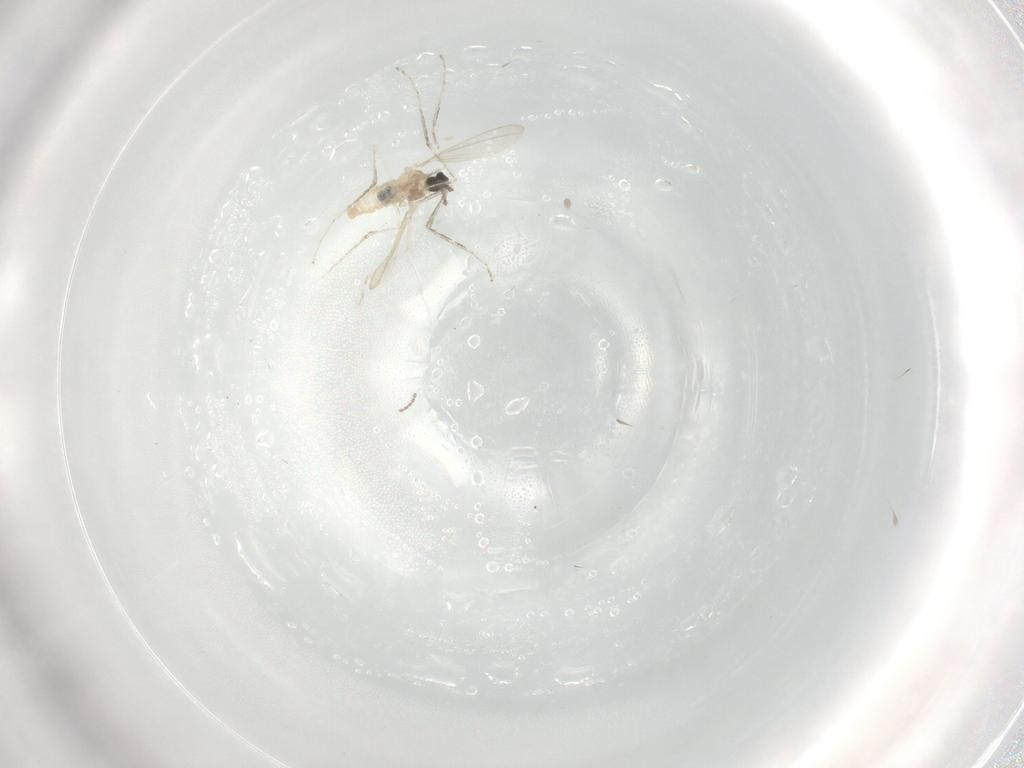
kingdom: Animalia
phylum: Arthropoda
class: Insecta
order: Diptera
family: Cecidomyiidae
